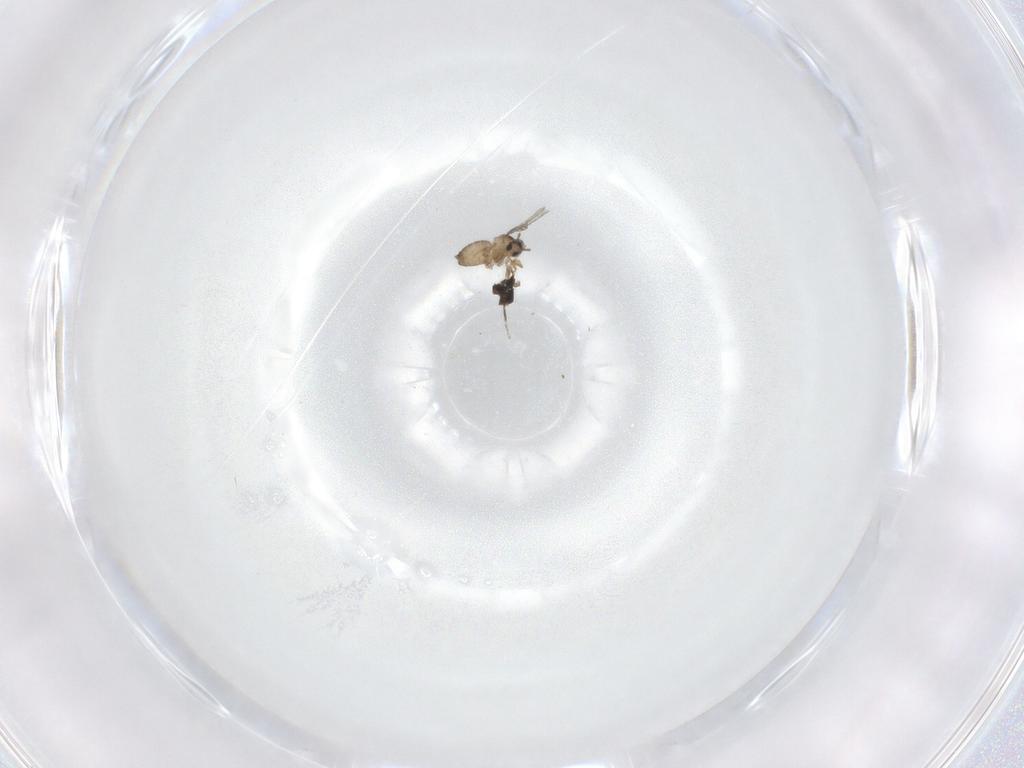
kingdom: Animalia
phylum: Arthropoda
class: Insecta
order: Diptera
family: Cecidomyiidae
